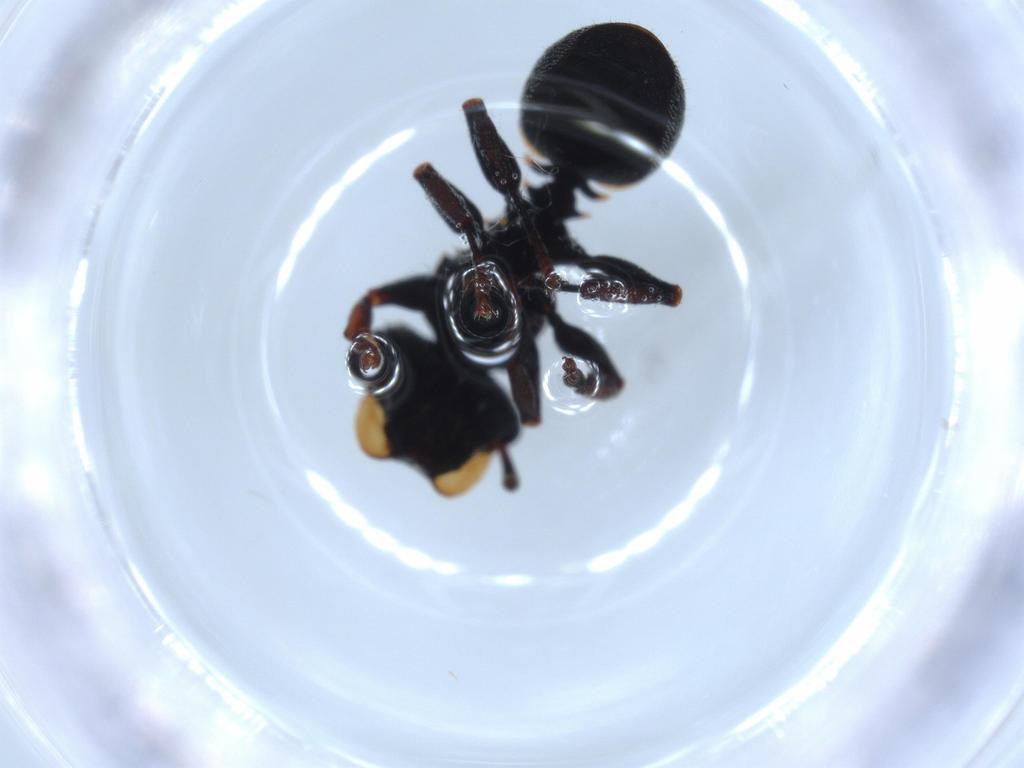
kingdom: Animalia
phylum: Arthropoda
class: Insecta
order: Hymenoptera
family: Formicidae
